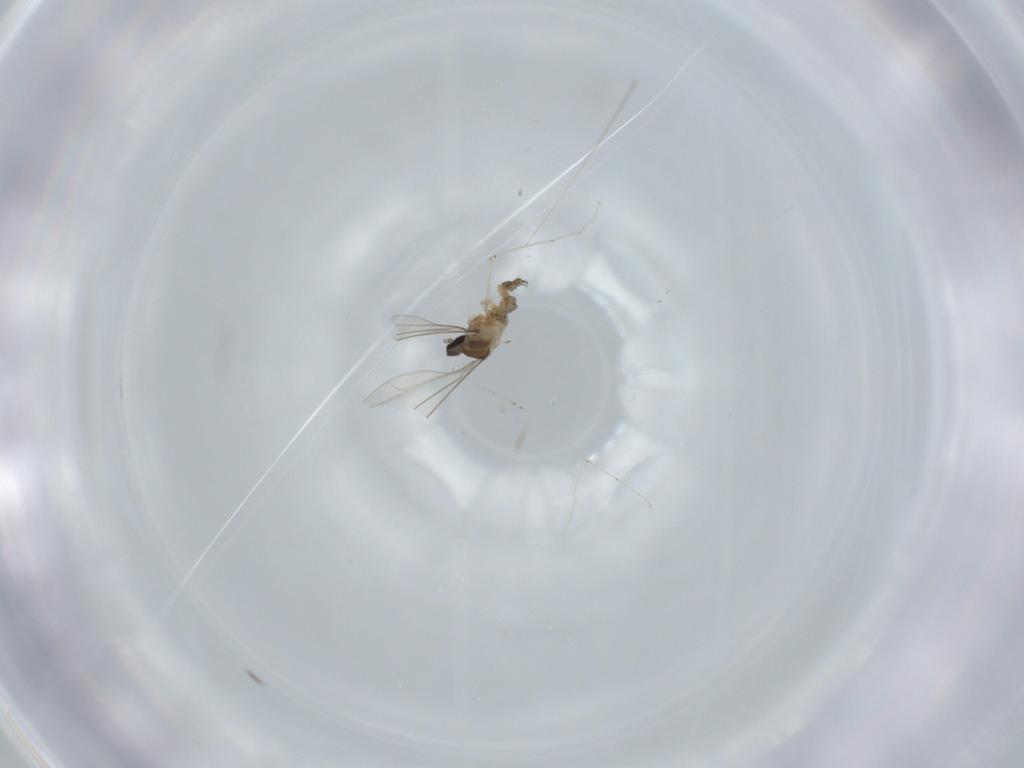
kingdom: Animalia
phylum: Arthropoda
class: Insecta
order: Diptera
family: Cecidomyiidae
